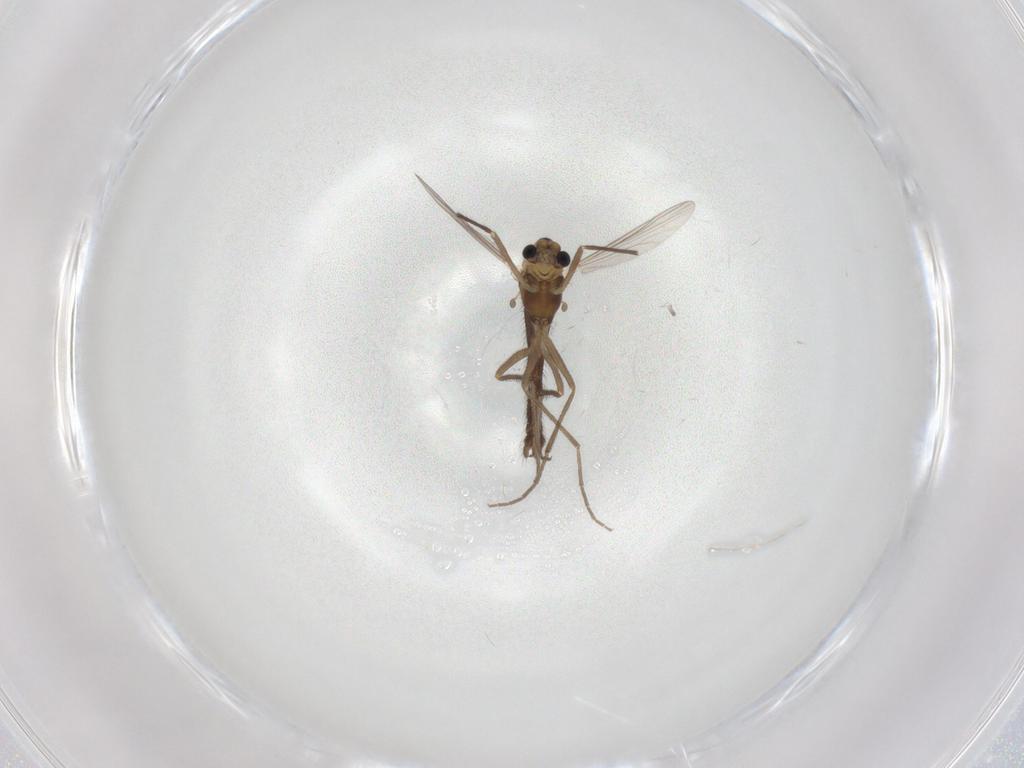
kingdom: Animalia
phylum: Arthropoda
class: Insecta
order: Diptera
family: Chironomidae
